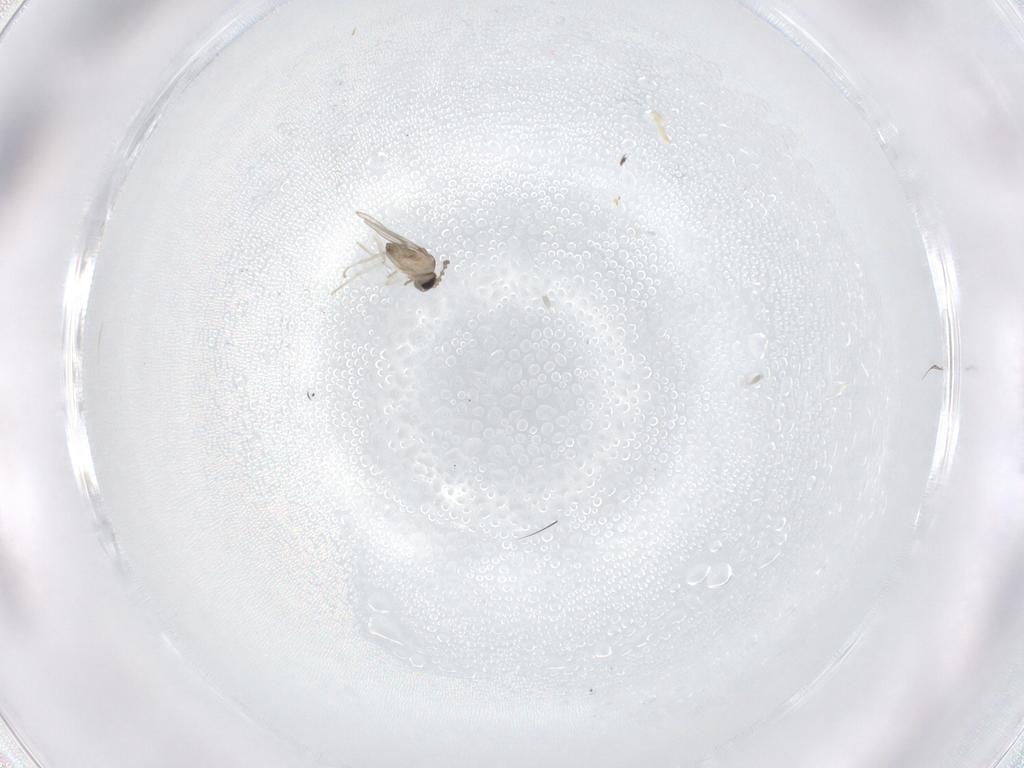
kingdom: Animalia
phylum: Arthropoda
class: Insecta
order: Diptera
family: Cecidomyiidae
